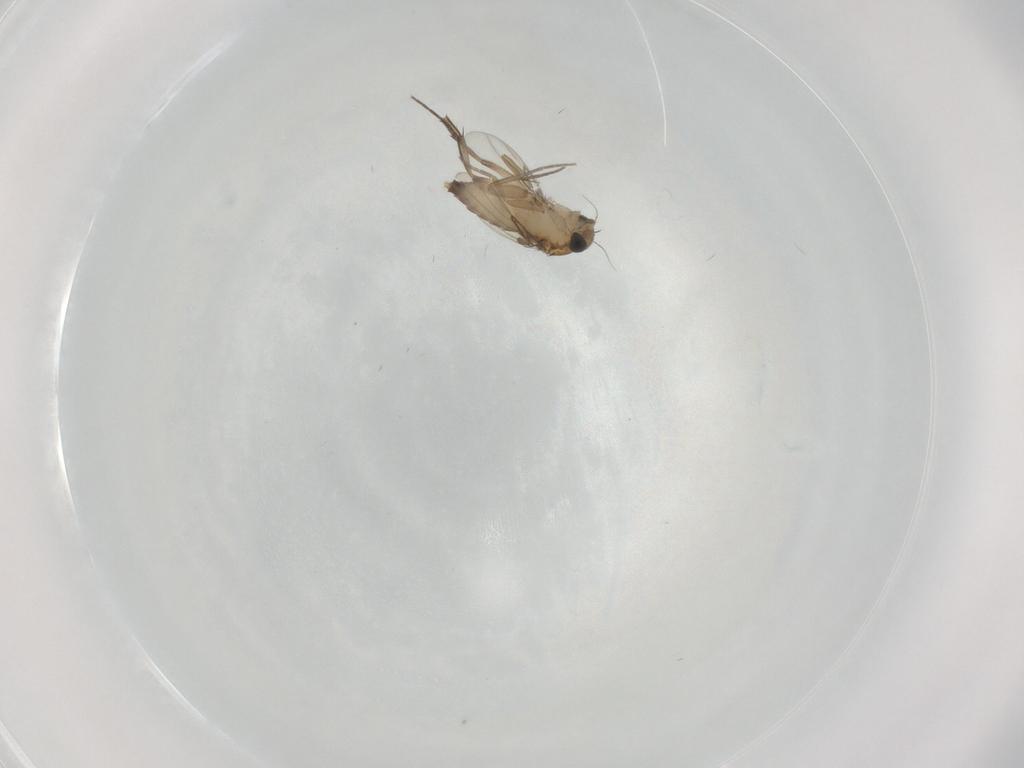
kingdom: Animalia
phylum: Arthropoda
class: Insecta
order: Diptera
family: Phoridae
